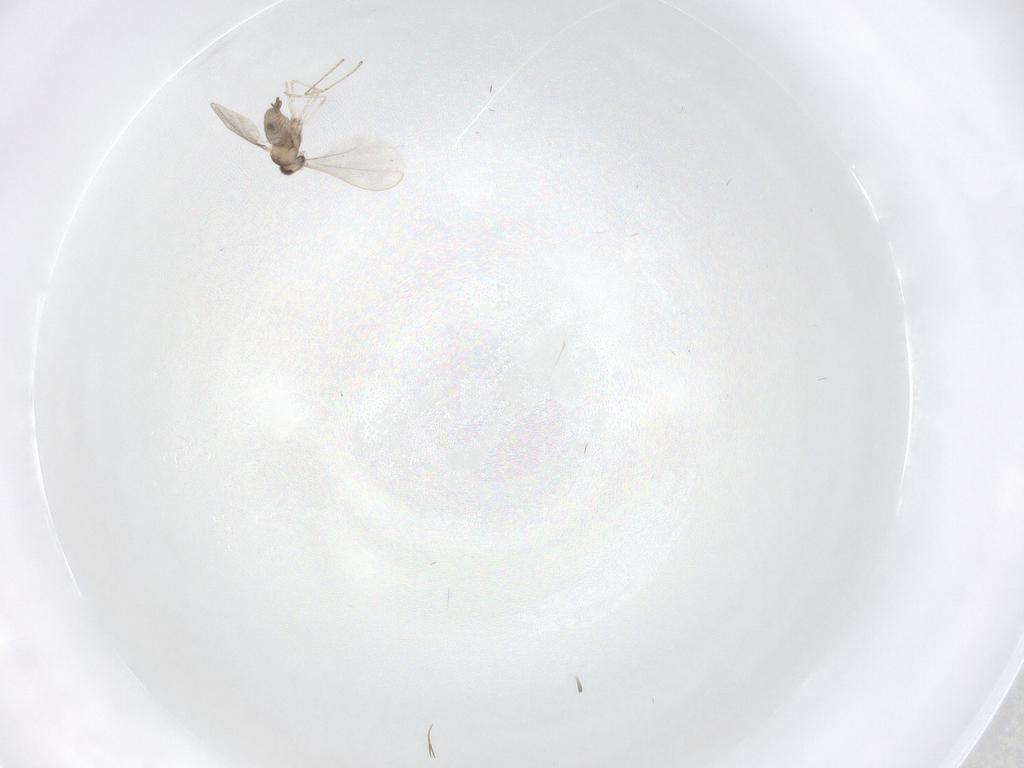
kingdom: Animalia
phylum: Arthropoda
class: Insecta
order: Diptera
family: Cecidomyiidae
